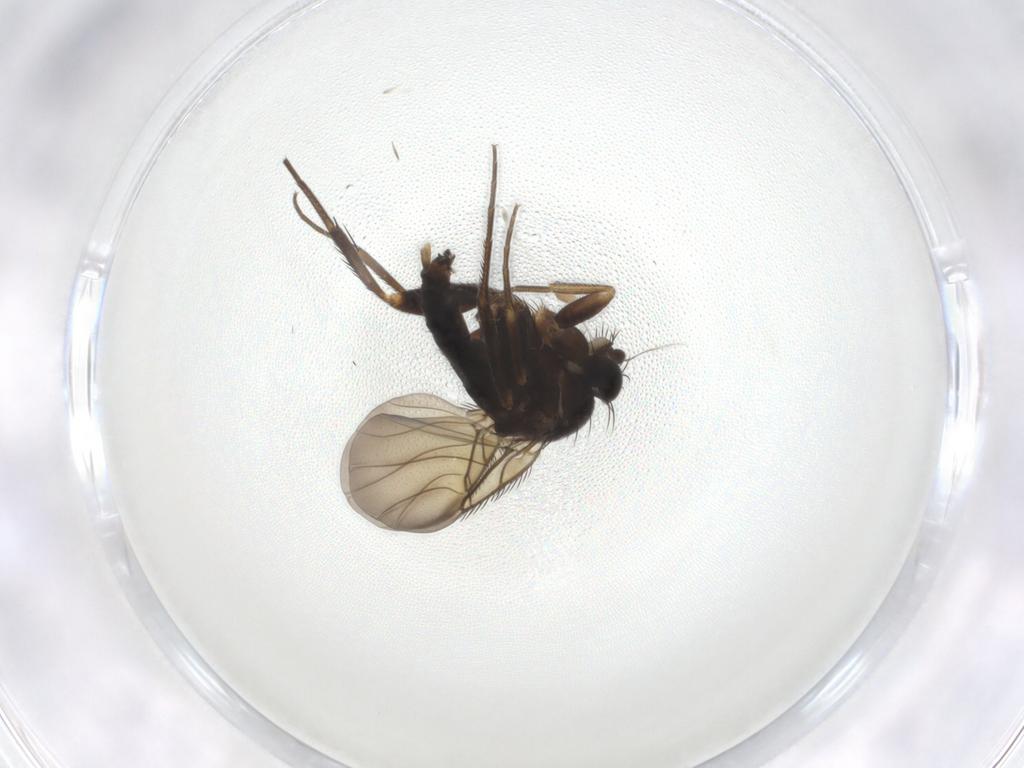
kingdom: Animalia
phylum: Arthropoda
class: Insecta
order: Diptera
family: Phoridae
